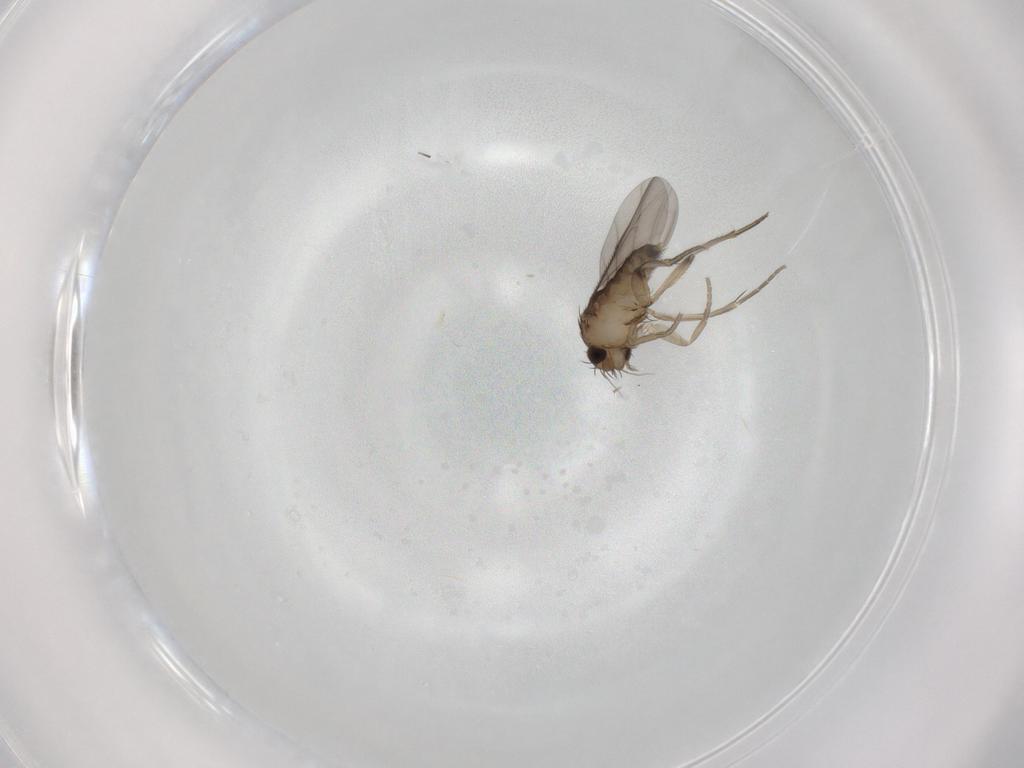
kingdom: Animalia
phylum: Arthropoda
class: Insecta
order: Diptera
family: Phoridae
